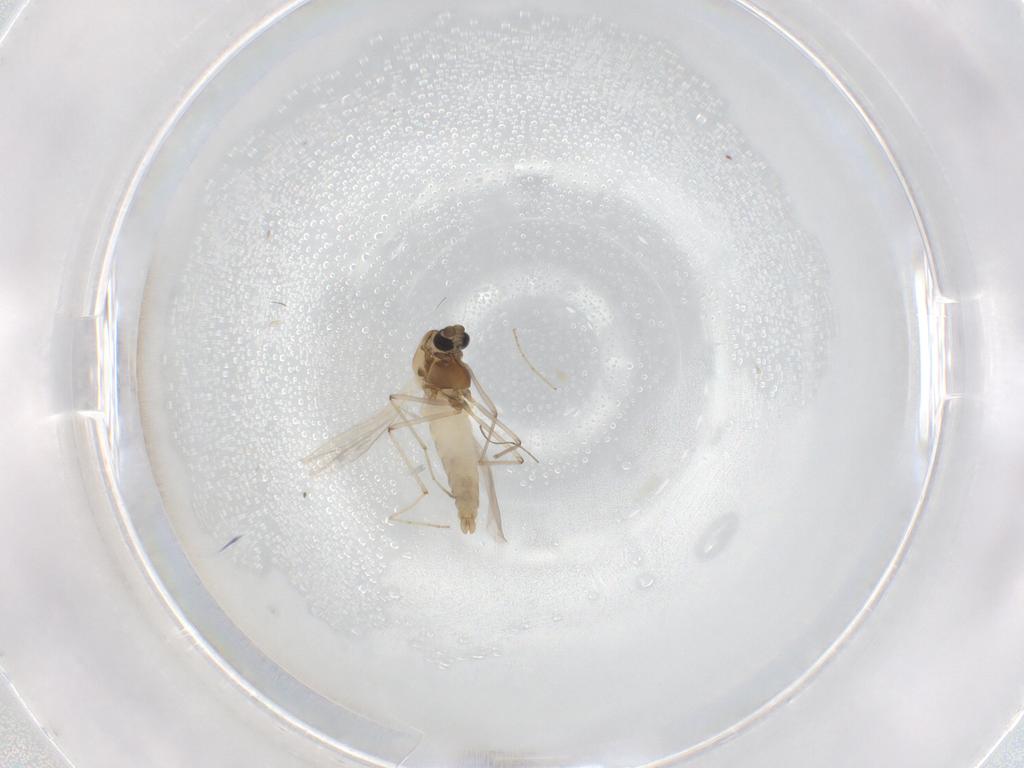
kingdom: Animalia
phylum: Arthropoda
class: Insecta
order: Diptera
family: Chironomidae
